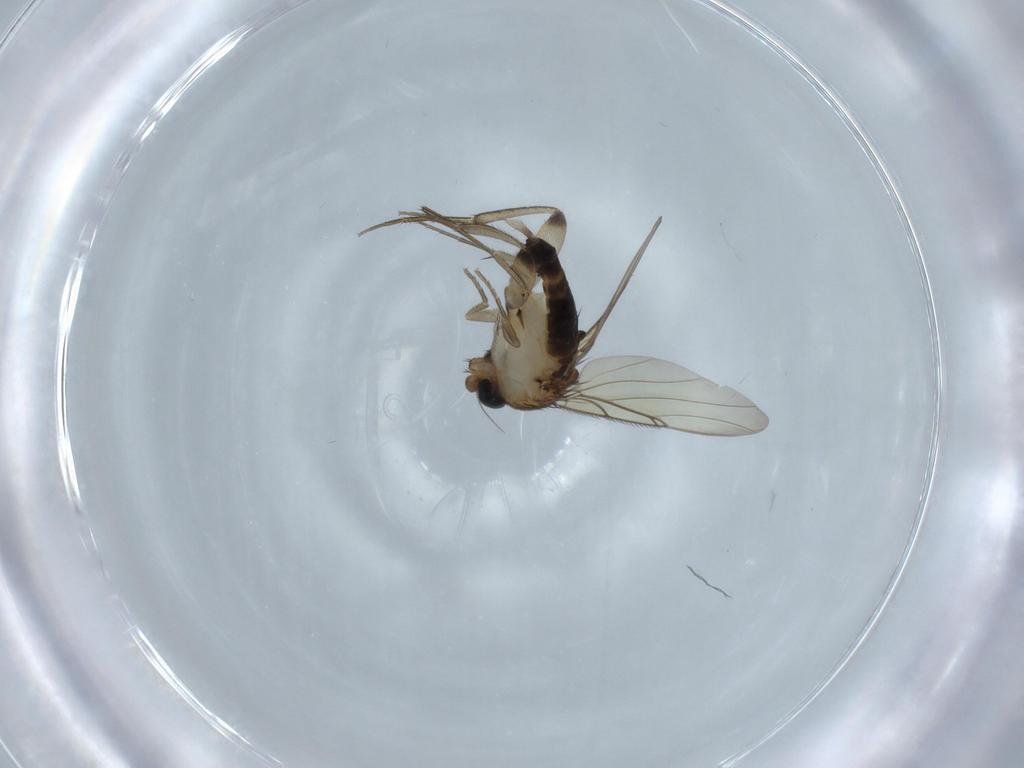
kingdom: Animalia
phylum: Arthropoda
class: Insecta
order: Diptera
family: Phoridae
